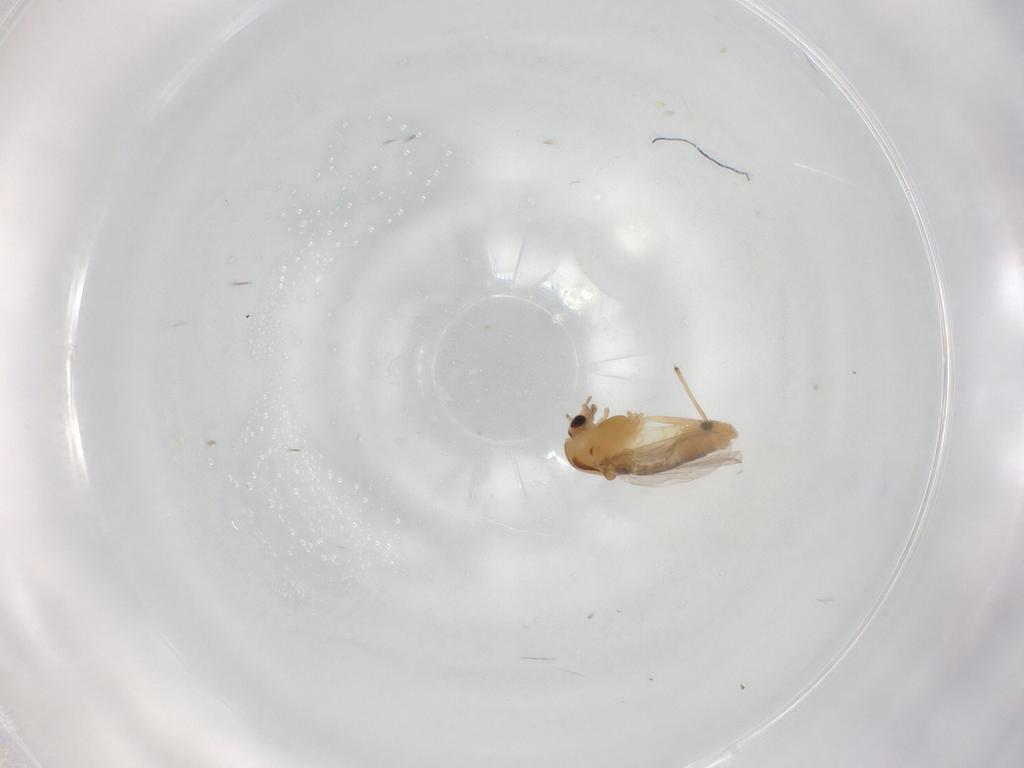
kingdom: Animalia
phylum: Arthropoda
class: Insecta
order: Diptera
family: Chironomidae
